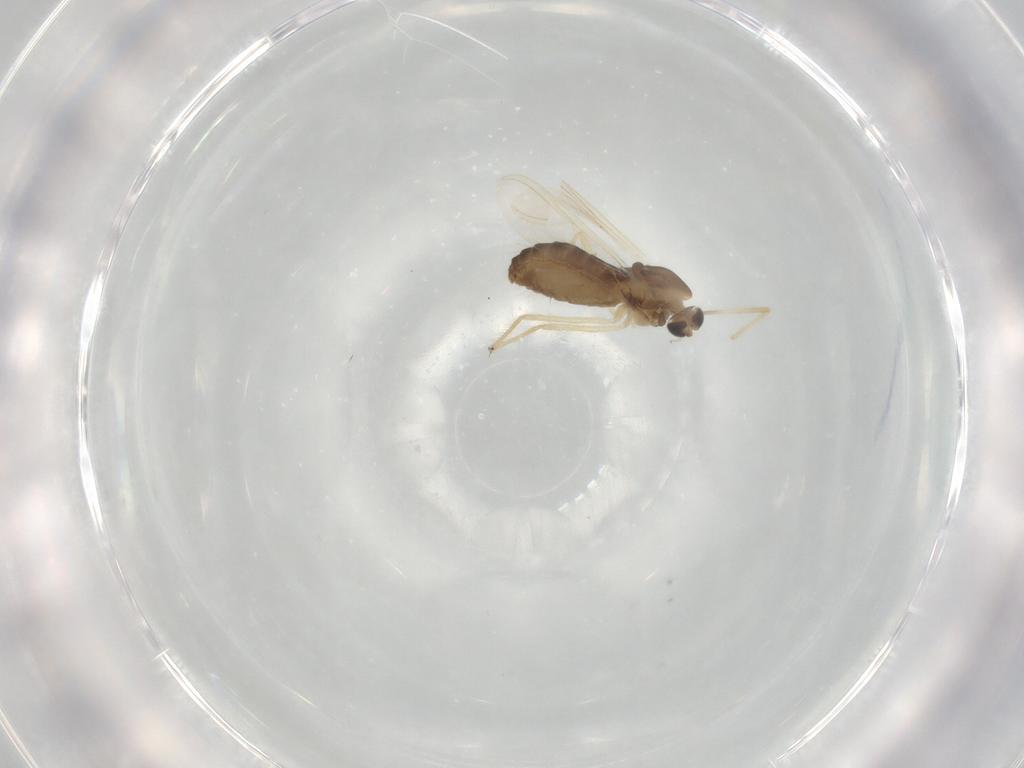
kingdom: Animalia
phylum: Arthropoda
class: Insecta
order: Diptera
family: Chironomidae
